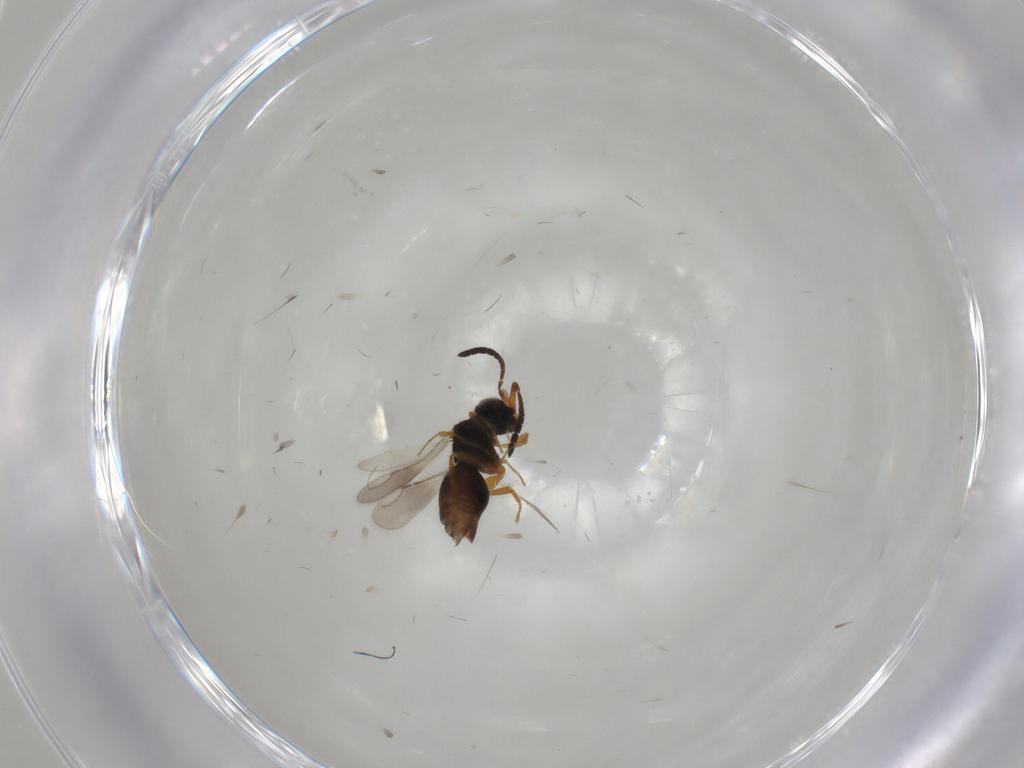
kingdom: Animalia
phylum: Arthropoda
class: Insecta
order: Hymenoptera
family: Ceraphronidae
